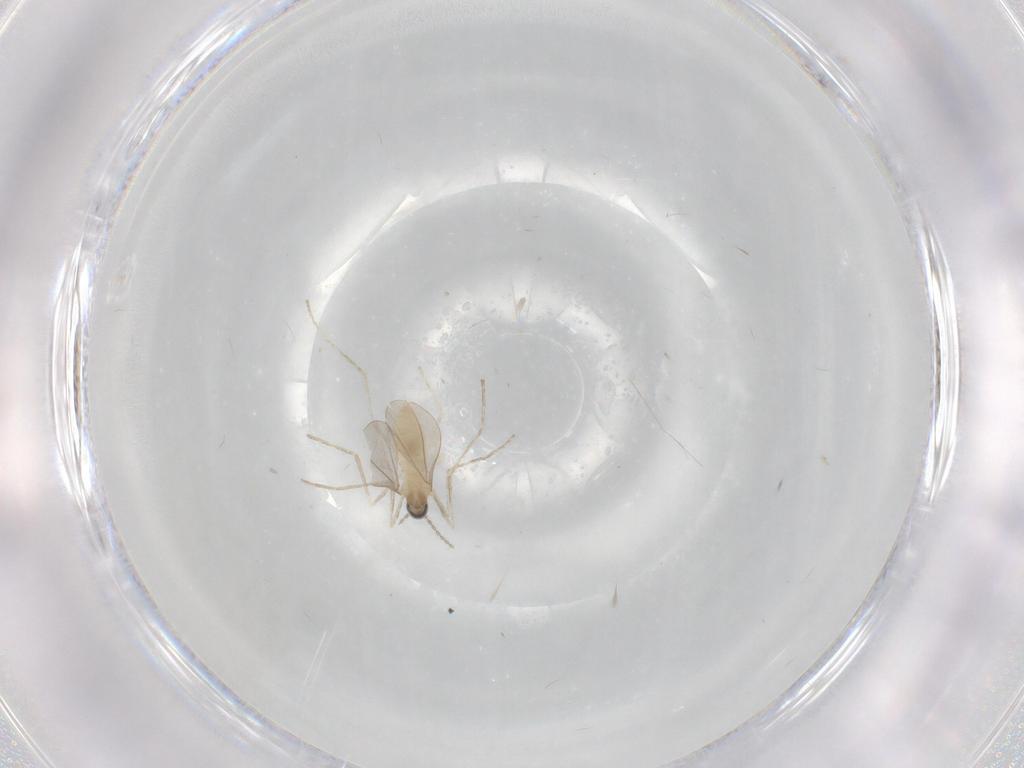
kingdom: Animalia
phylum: Arthropoda
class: Insecta
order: Diptera
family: Cecidomyiidae
